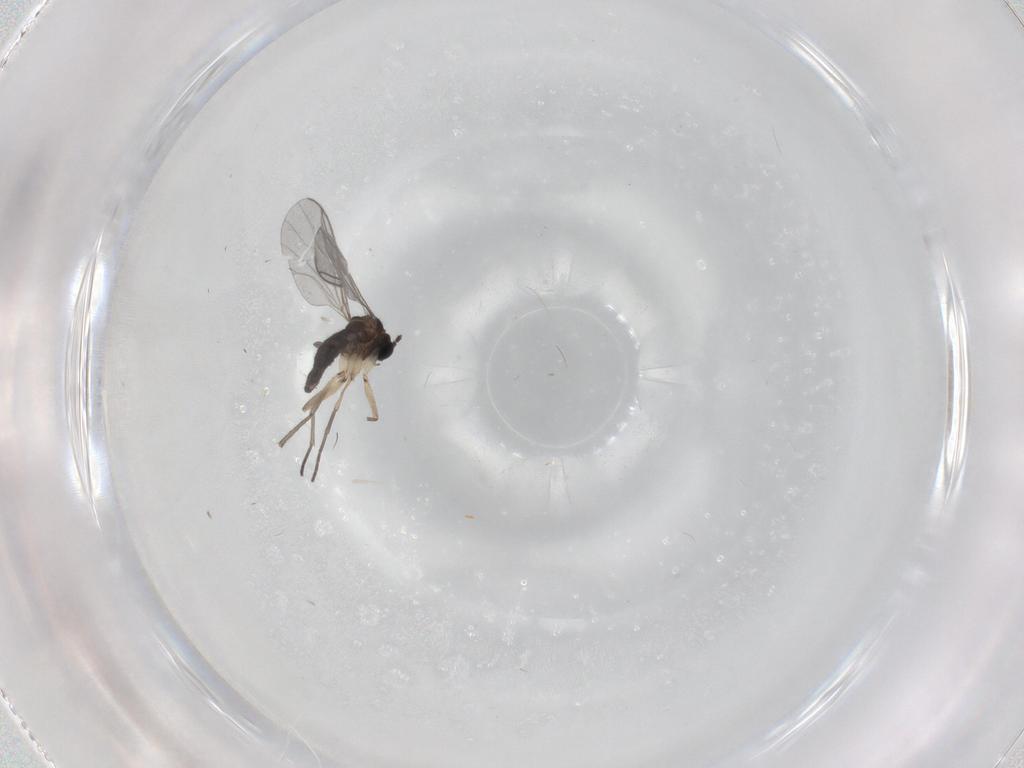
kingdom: Animalia
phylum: Arthropoda
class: Insecta
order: Diptera
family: Sciaridae
